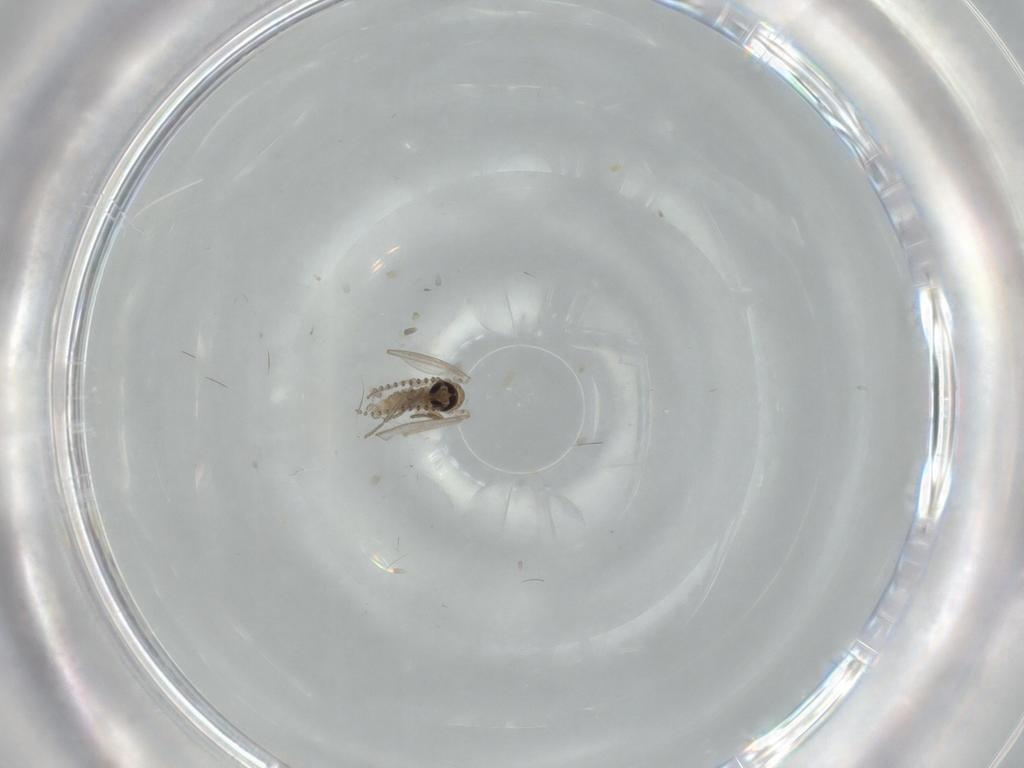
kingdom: Animalia
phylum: Arthropoda
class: Insecta
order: Diptera
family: Psychodidae
